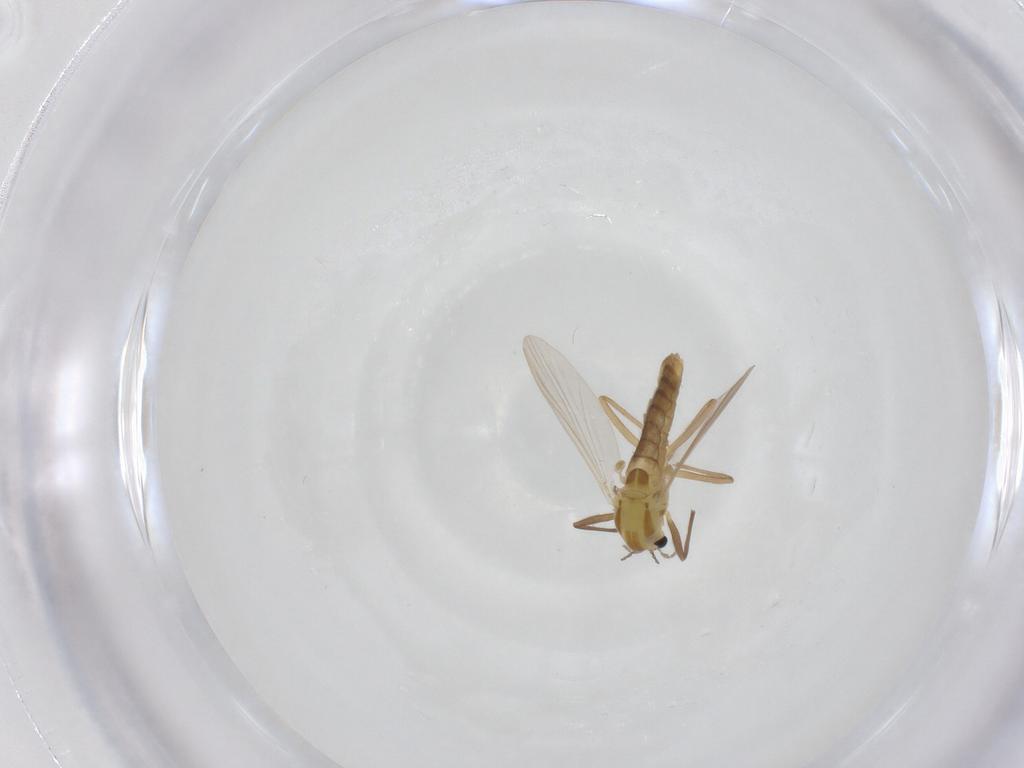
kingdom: Animalia
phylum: Arthropoda
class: Insecta
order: Diptera
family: Chironomidae
